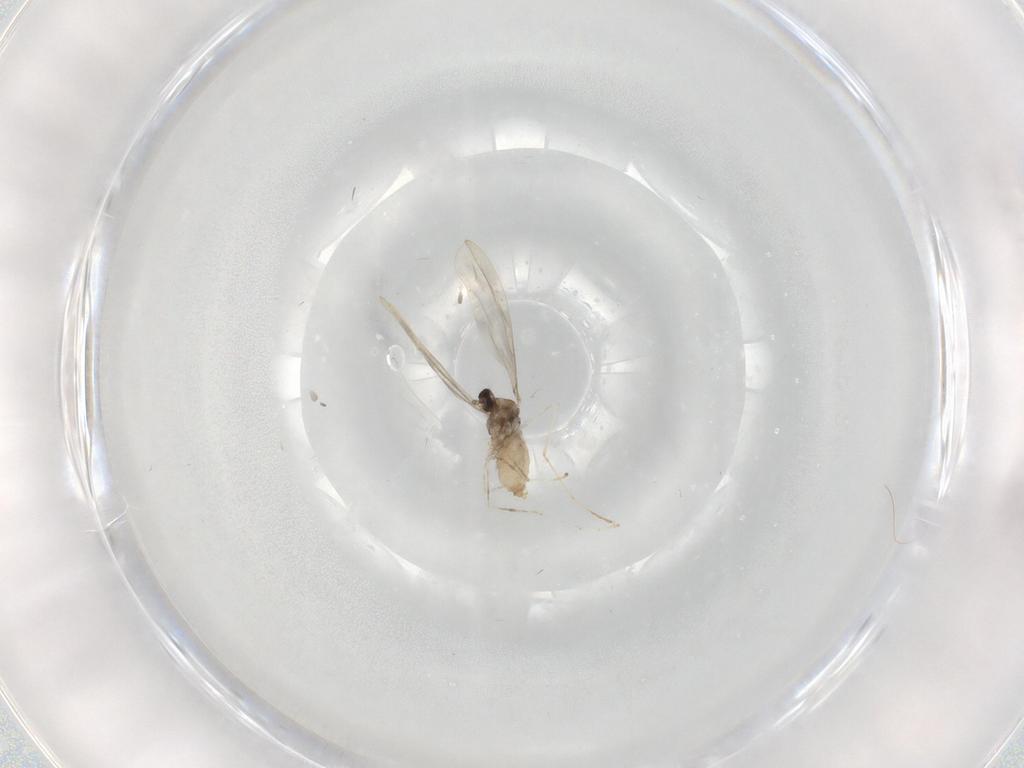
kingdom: Animalia
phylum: Arthropoda
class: Insecta
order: Diptera
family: Cecidomyiidae
